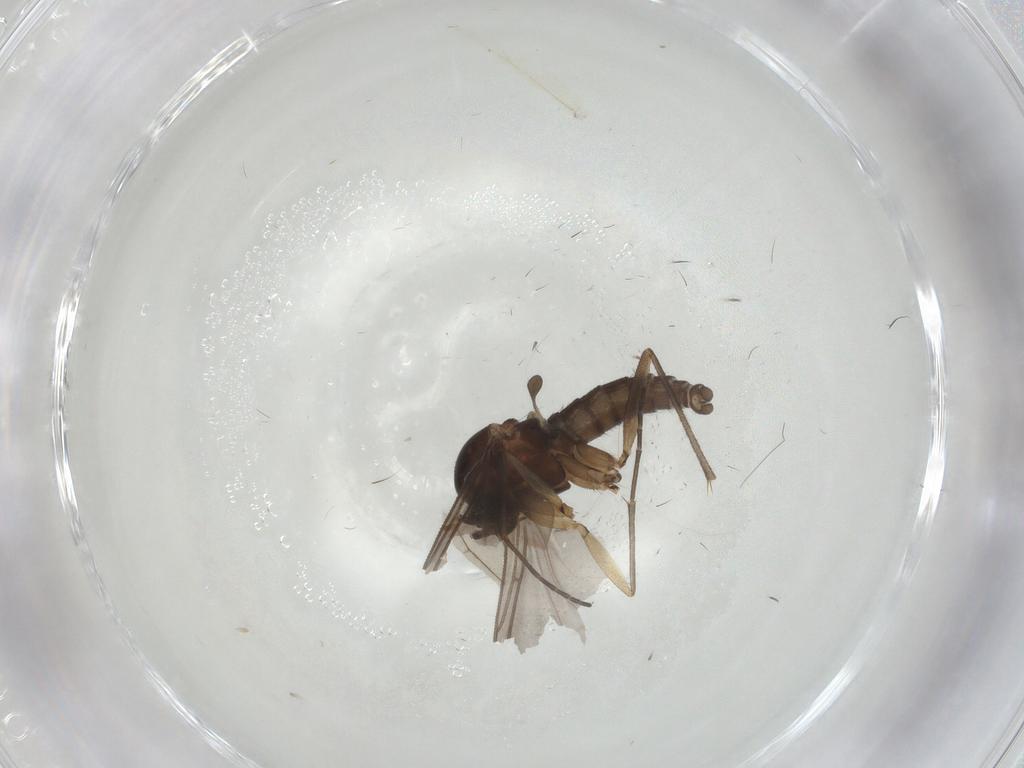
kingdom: Animalia
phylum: Arthropoda
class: Insecta
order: Diptera
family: Sciaridae
